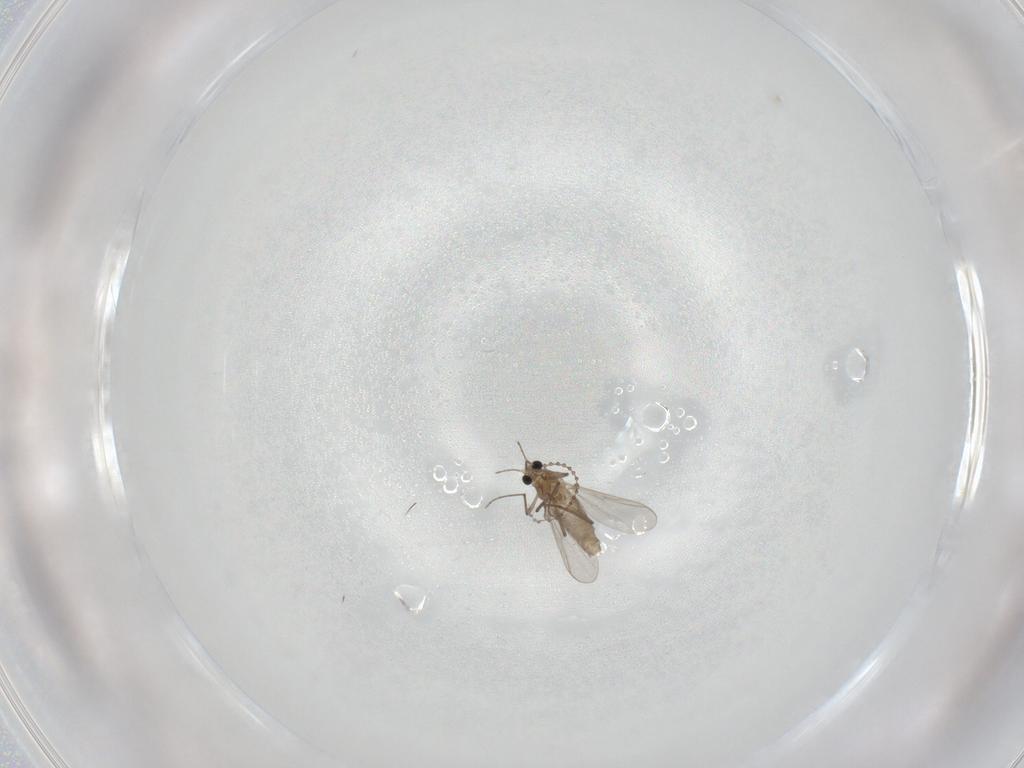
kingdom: Animalia
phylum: Arthropoda
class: Insecta
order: Diptera
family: Chironomidae
